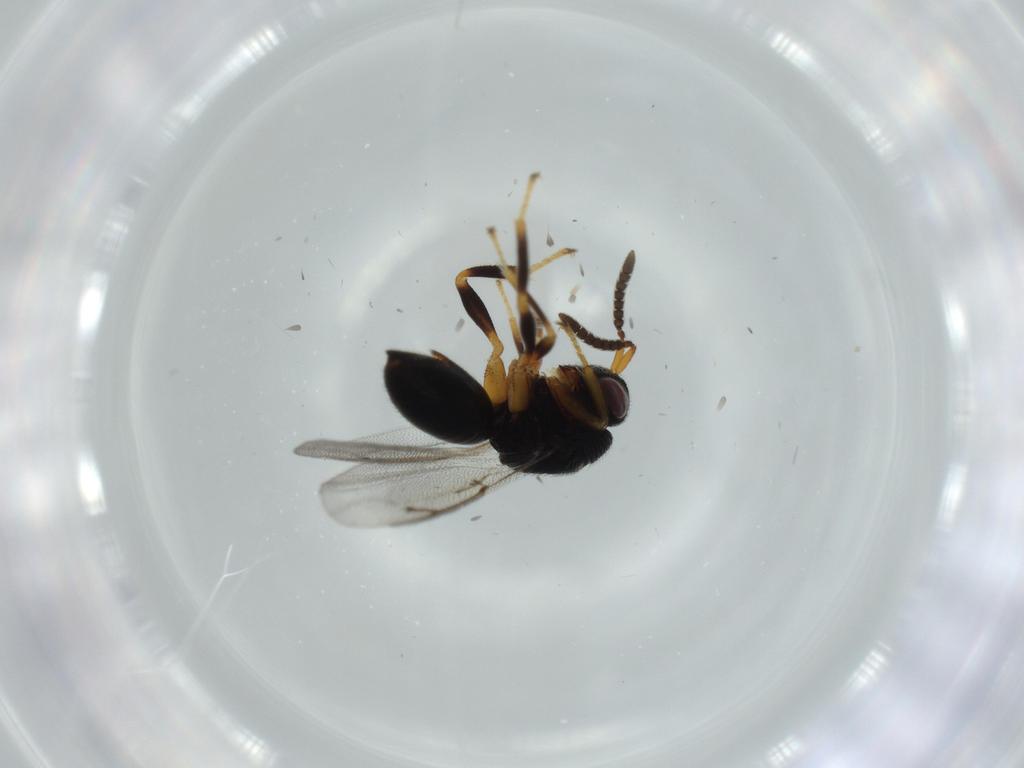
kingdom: Animalia
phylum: Arthropoda
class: Insecta
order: Hymenoptera
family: Eurytomidae
